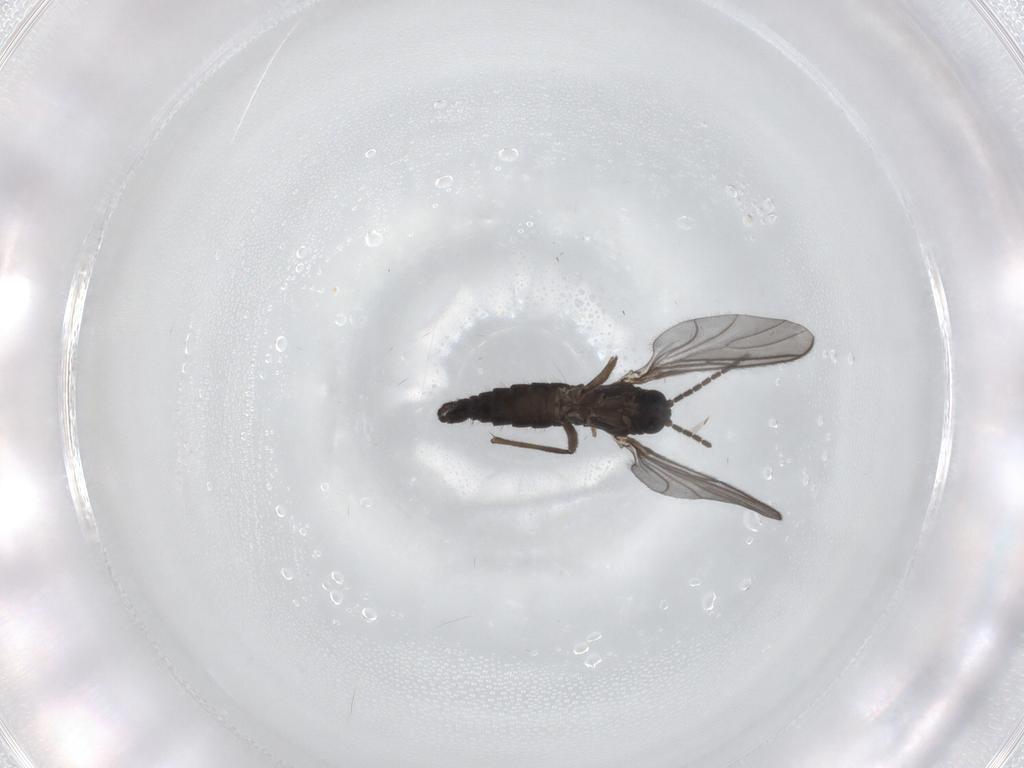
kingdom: Animalia
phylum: Arthropoda
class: Insecta
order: Diptera
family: Sciaridae
